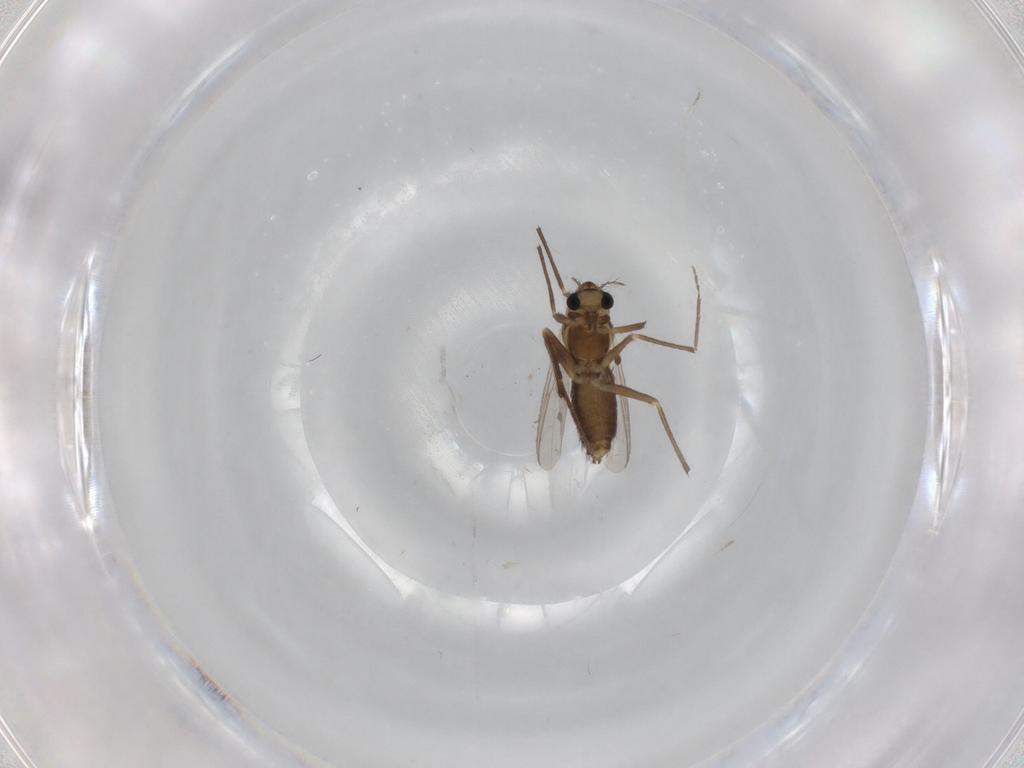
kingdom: Animalia
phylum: Arthropoda
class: Insecta
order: Diptera
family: Chironomidae
